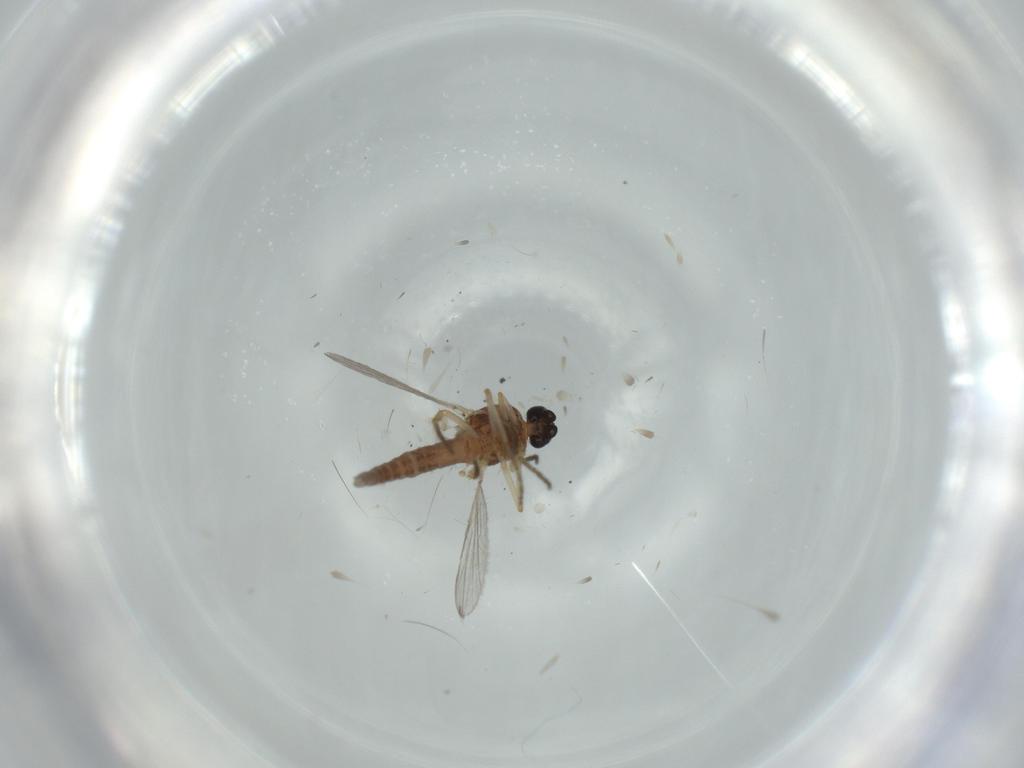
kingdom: Animalia
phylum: Arthropoda
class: Insecta
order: Diptera
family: Ceratopogonidae
